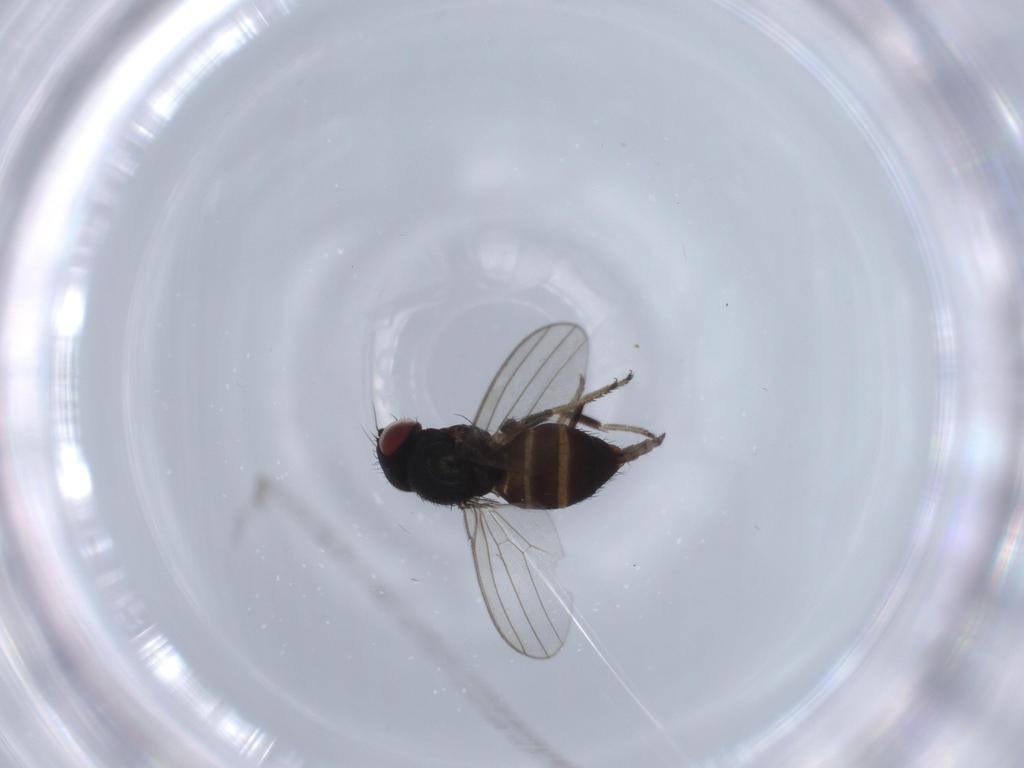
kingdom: Animalia
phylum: Arthropoda
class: Insecta
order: Diptera
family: Milichiidae
